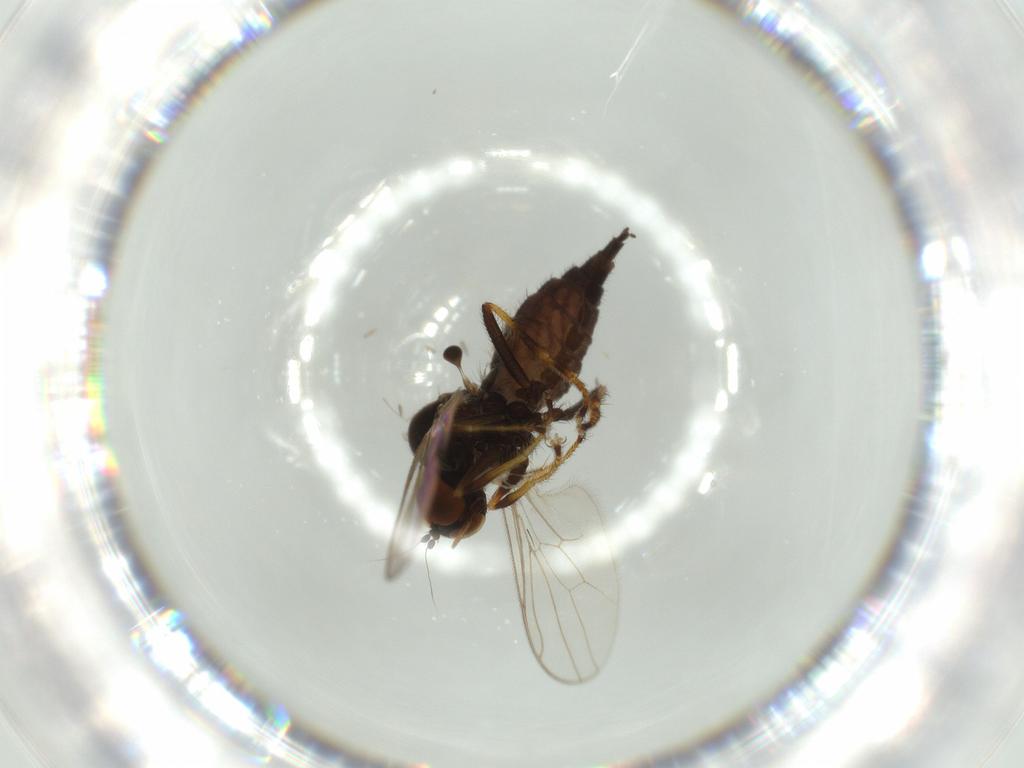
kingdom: Animalia
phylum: Arthropoda
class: Insecta
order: Diptera
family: Hybotidae
